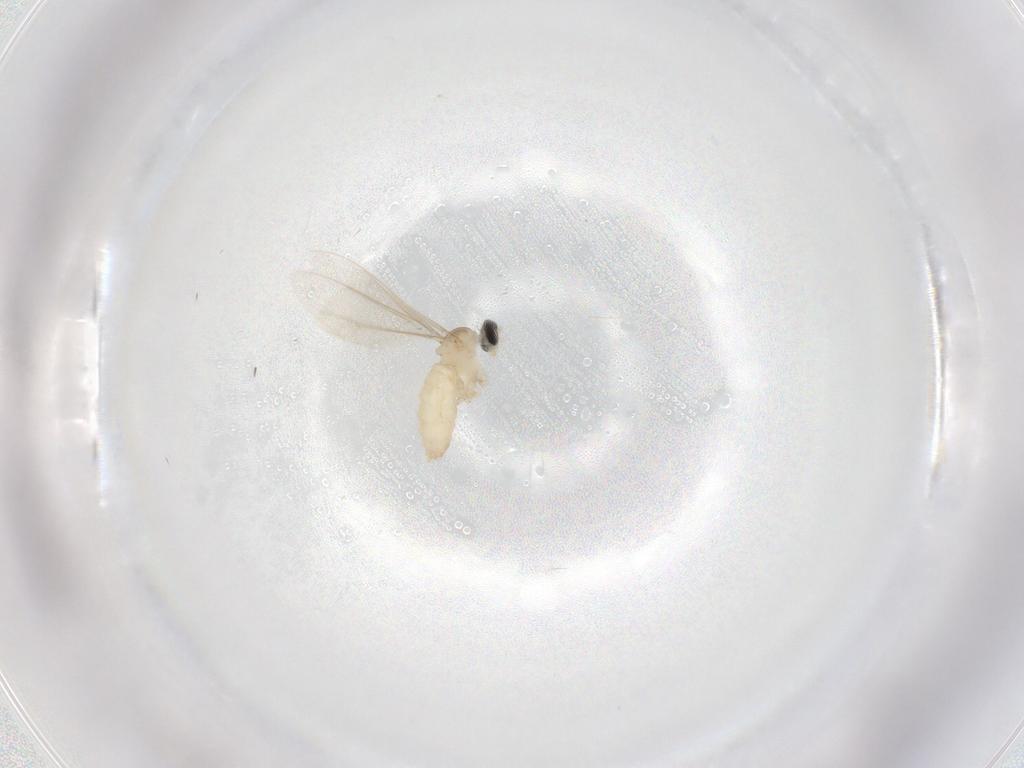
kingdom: Animalia
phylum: Arthropoda
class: Insecta
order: Diptera
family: Chironomidae
